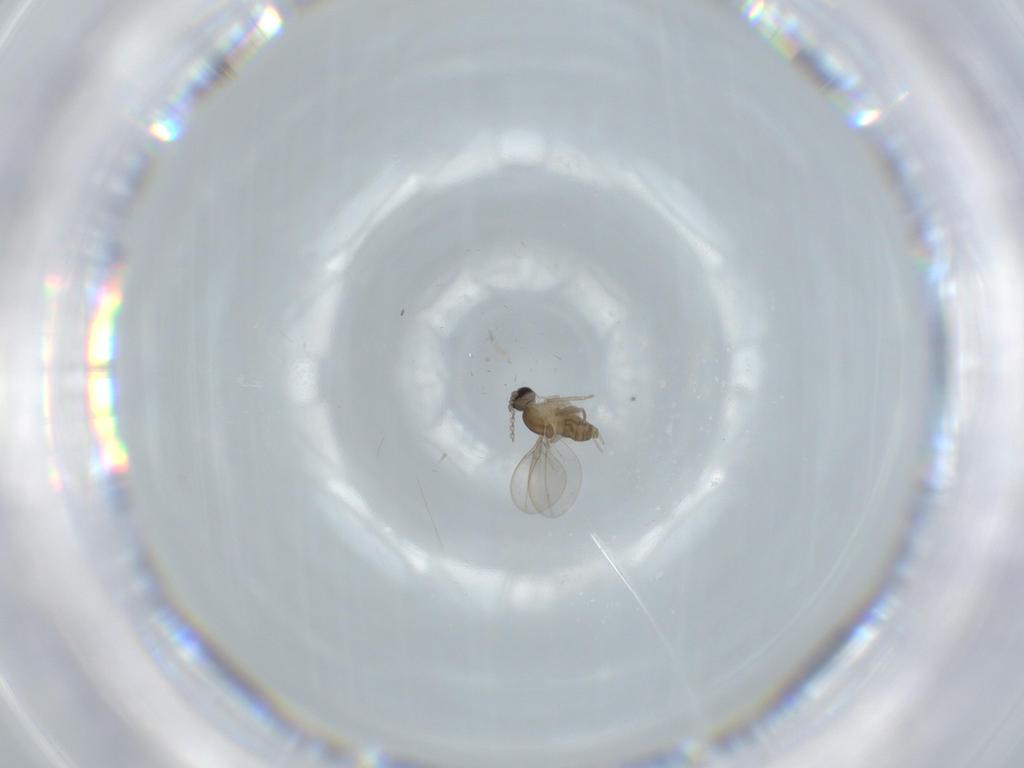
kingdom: Animalia
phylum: Arthropoda
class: Insecta
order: Diptera
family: Cecidomyiidae
